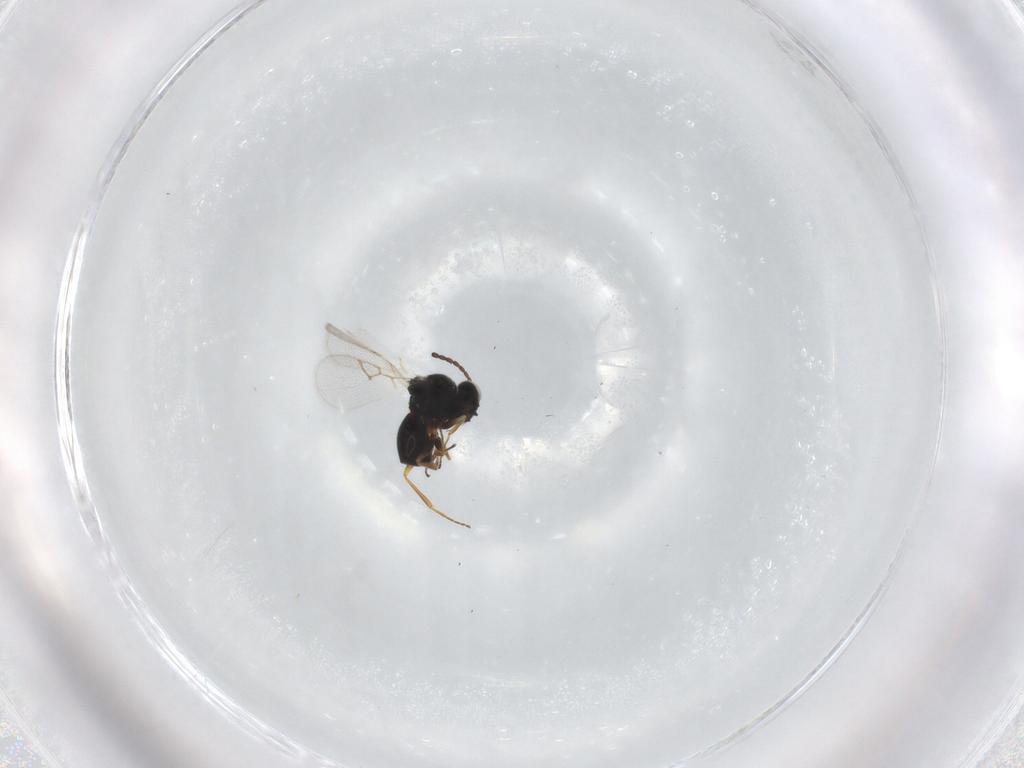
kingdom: Animalia
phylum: Arthropoda
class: Insecta
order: Hymenoptera
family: Figitidae
